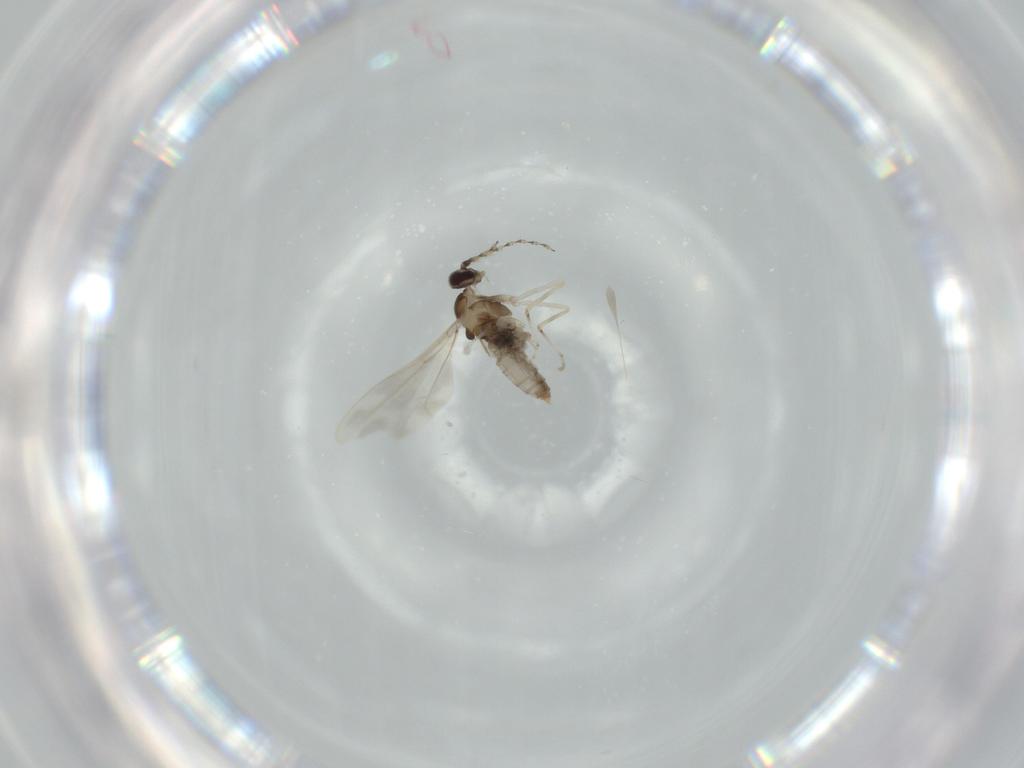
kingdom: Animalia
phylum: Arthropoda
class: Insecta
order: Diptera
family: Cecidomyiidae
